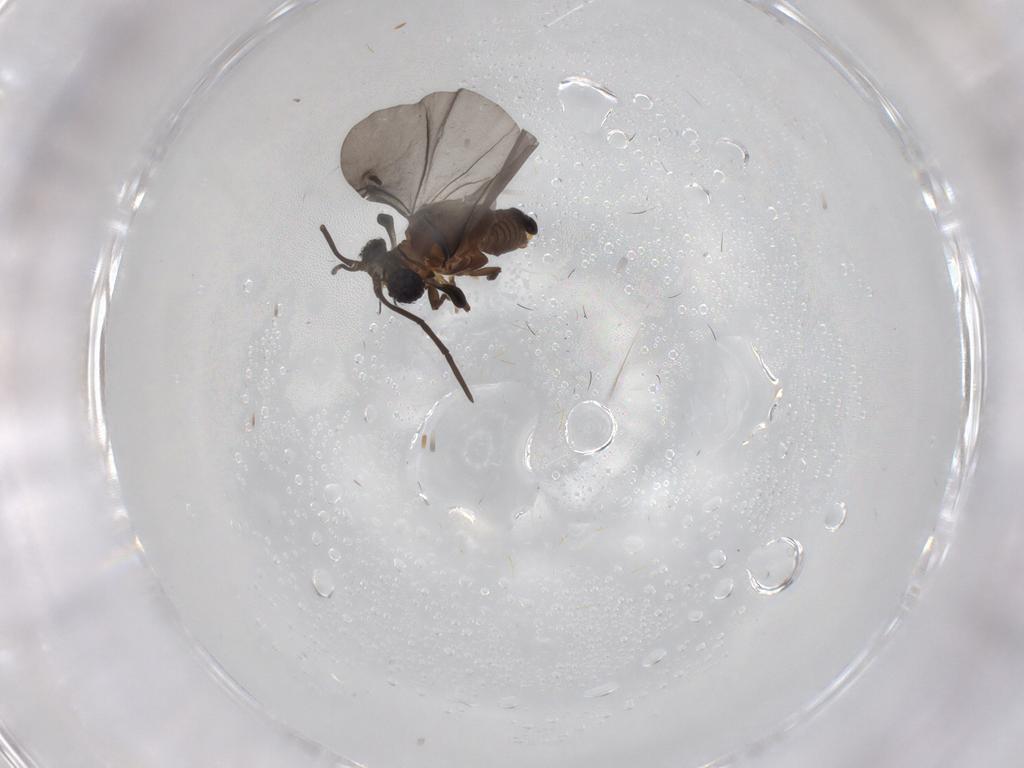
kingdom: Animalia
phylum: Arthropoda
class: Insecta
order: Strepsiptera
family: Myrmecolacidae
